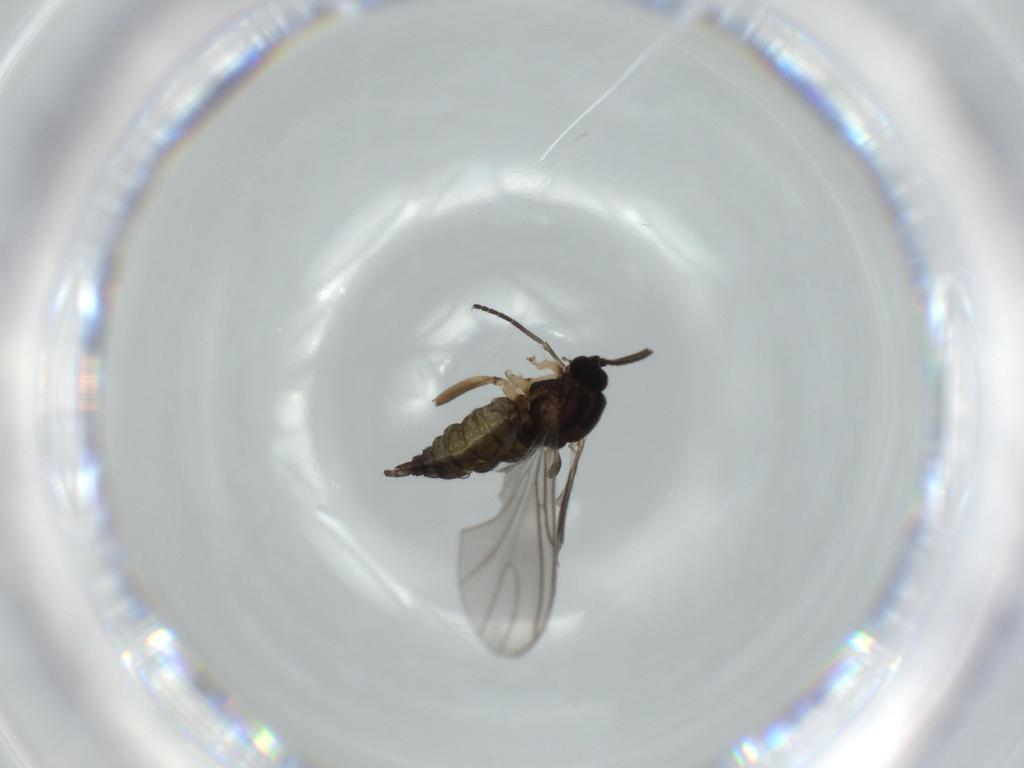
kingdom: Animalia
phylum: Arthropoda
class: Insecta
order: Diptera
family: Sciaridae
